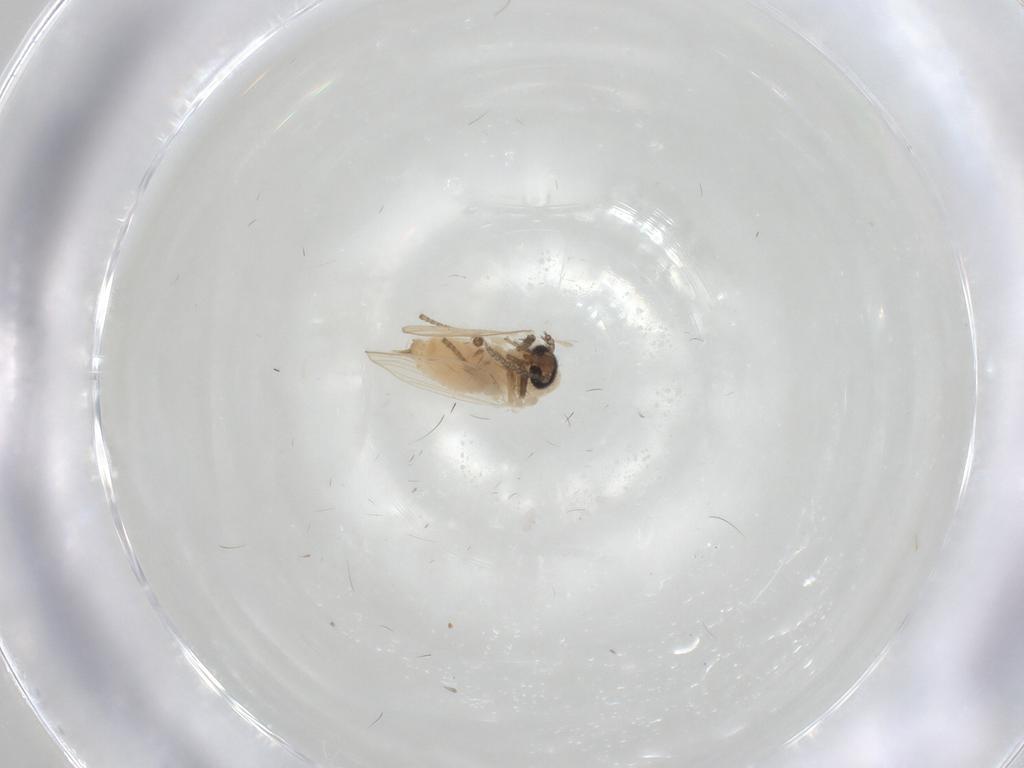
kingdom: Animalia
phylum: Arthropoda
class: Insecta
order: Diptera
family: Psychodidae
